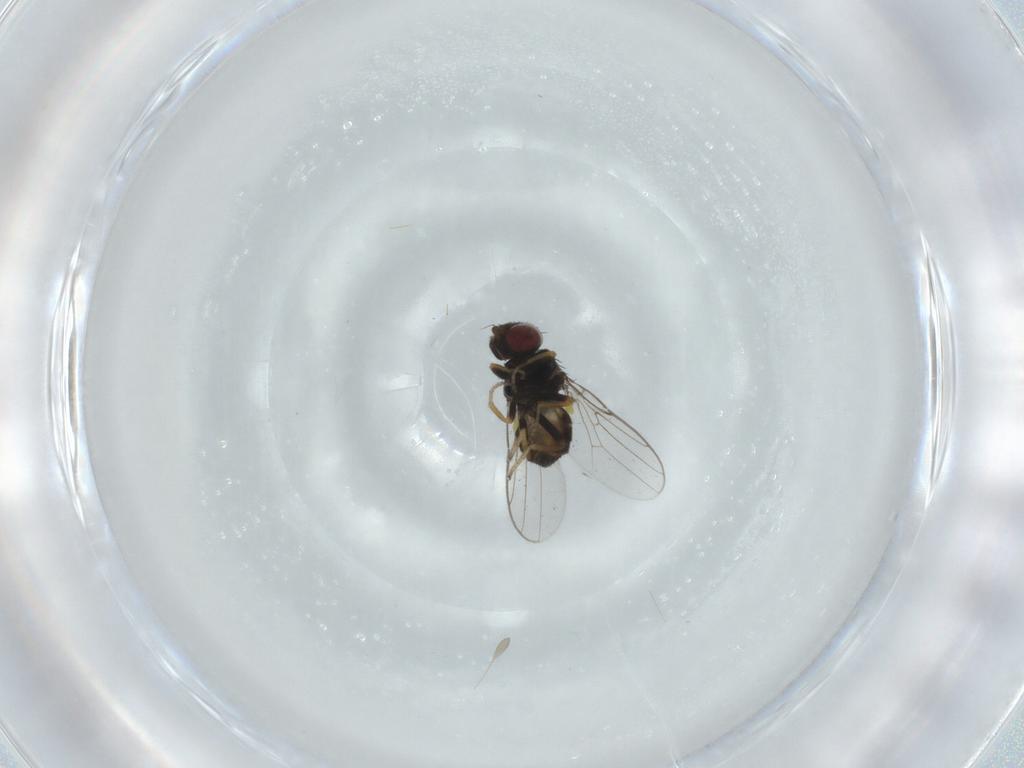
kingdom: Animalia
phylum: Arthropoda
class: Insecta
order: Diptera
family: Chloropidae
